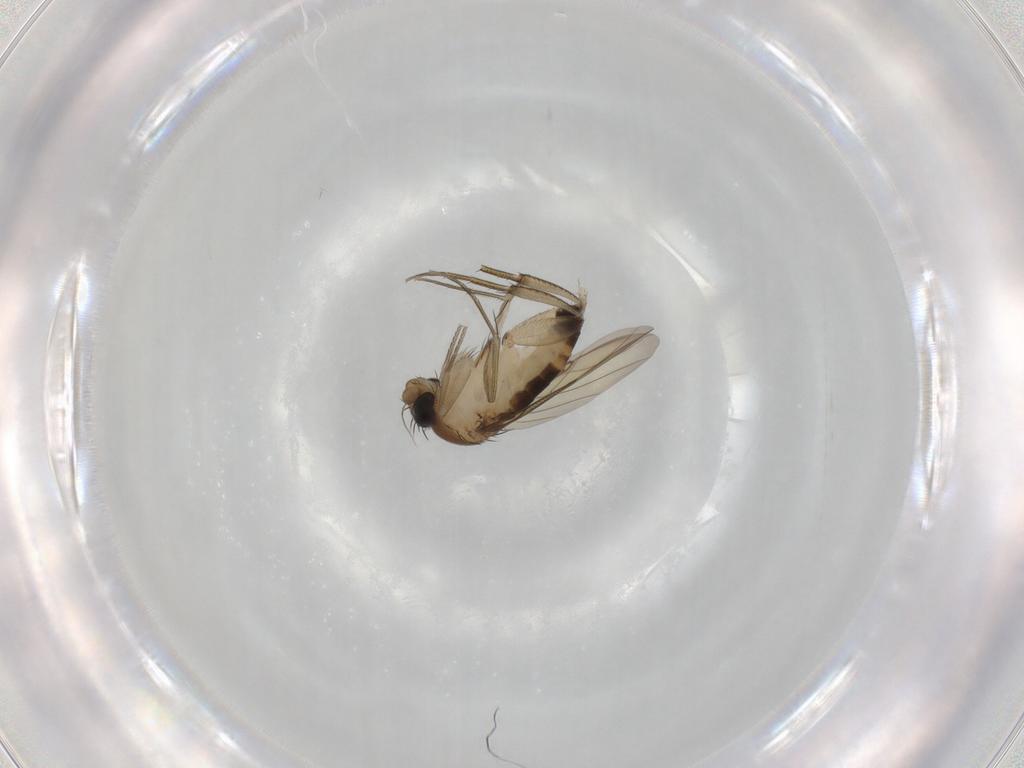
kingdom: Animalia
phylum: Arthropoda
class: Insecta
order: Diptera
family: Phoridae
